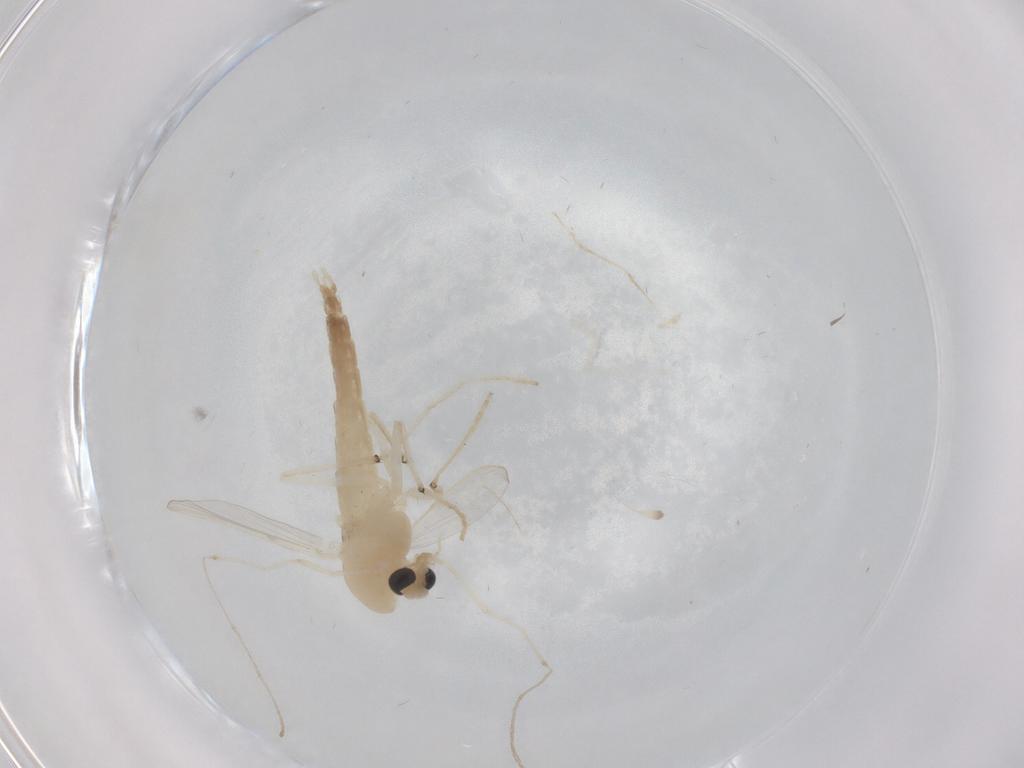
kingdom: Animalia
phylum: Arthropoda
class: Insecta
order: Diptera
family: Chironomidae
